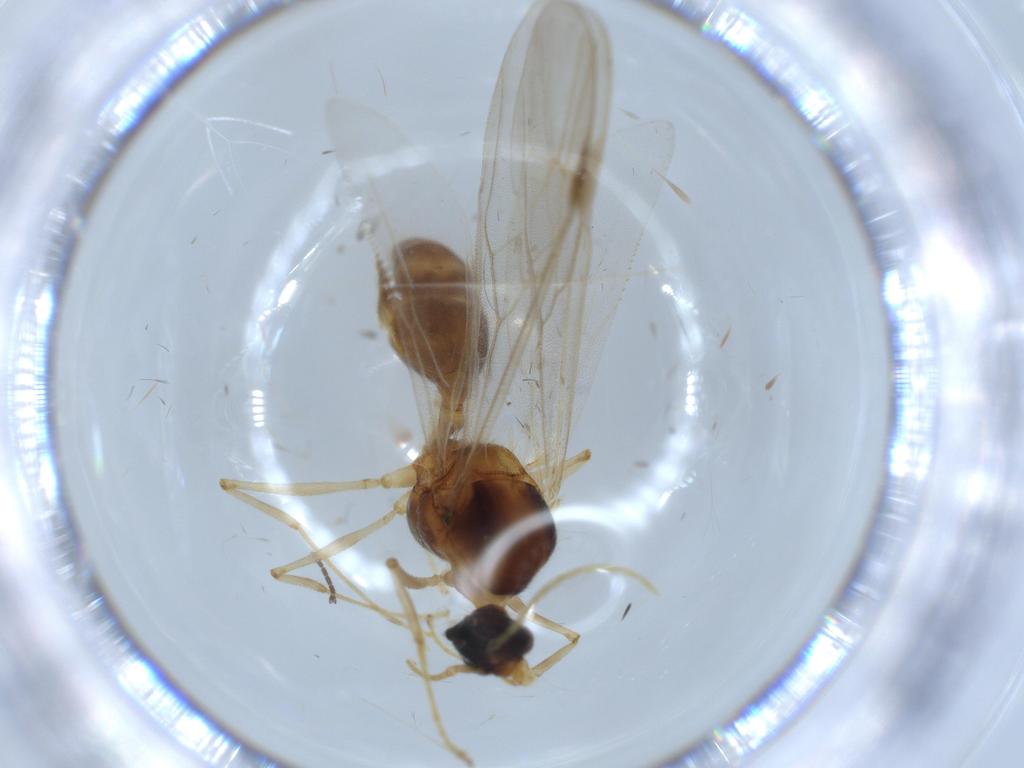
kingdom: Animalia
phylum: Arthropoda
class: Insecta
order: Hymenoptera
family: Formicidae
